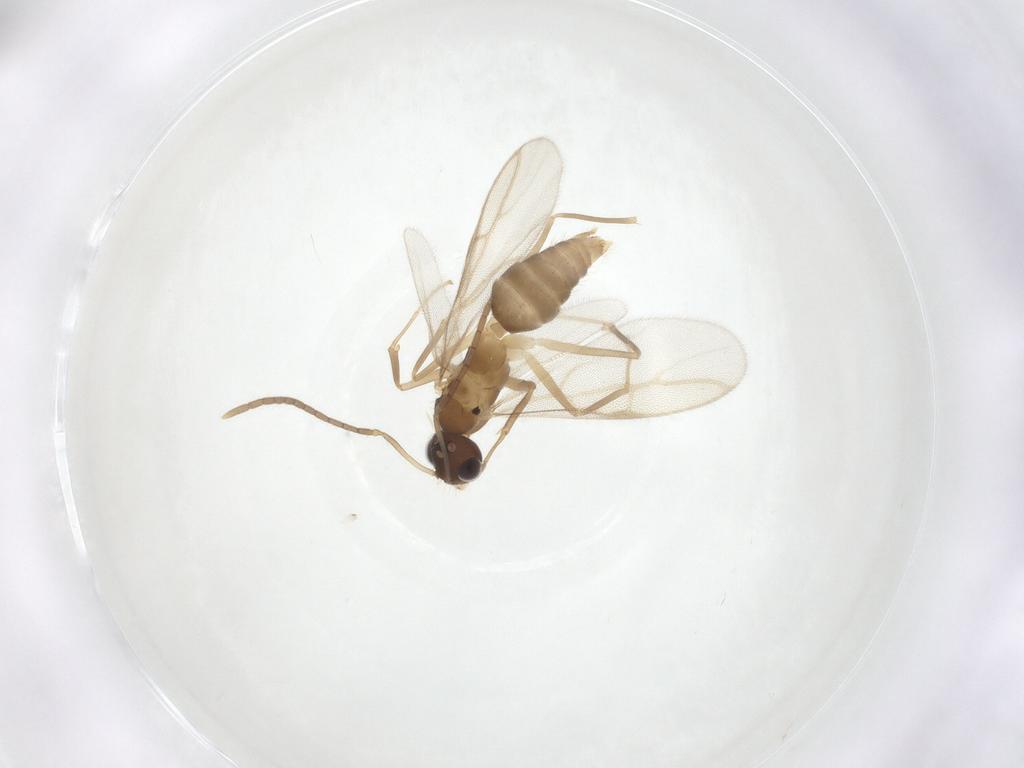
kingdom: Animalia
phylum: Arthropoda
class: Insecta
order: Hymenoptera
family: Formicidae
